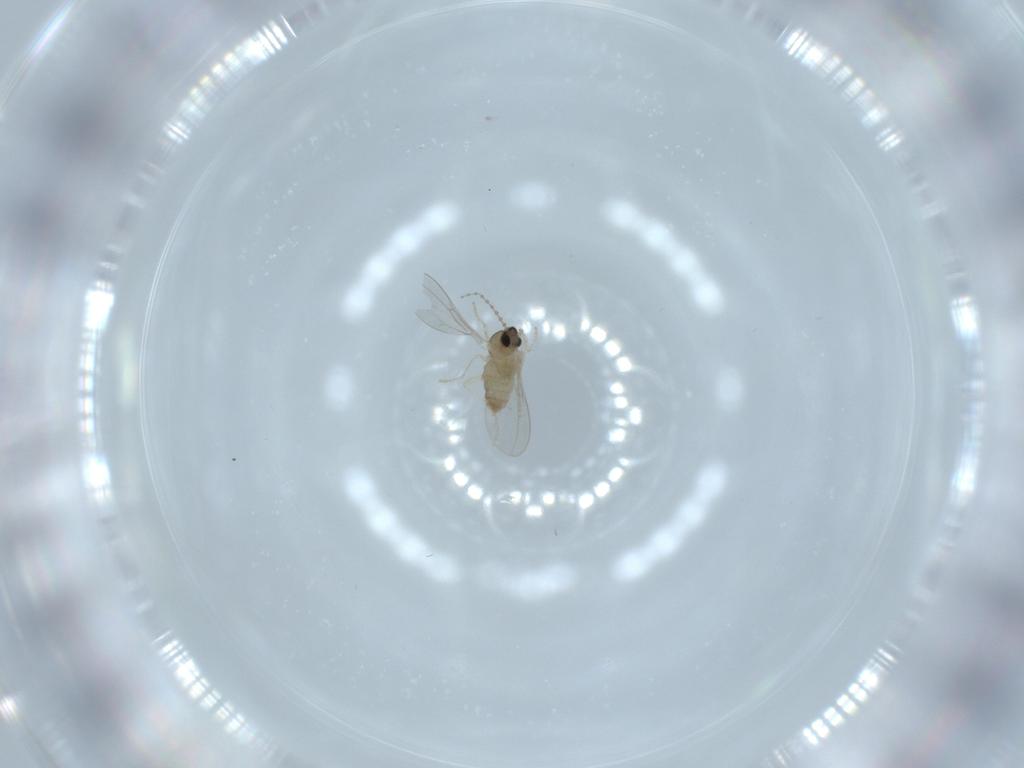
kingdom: Animalia
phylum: Arthropoda
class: Insecta
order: Diptera
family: Cecidomyiidae
